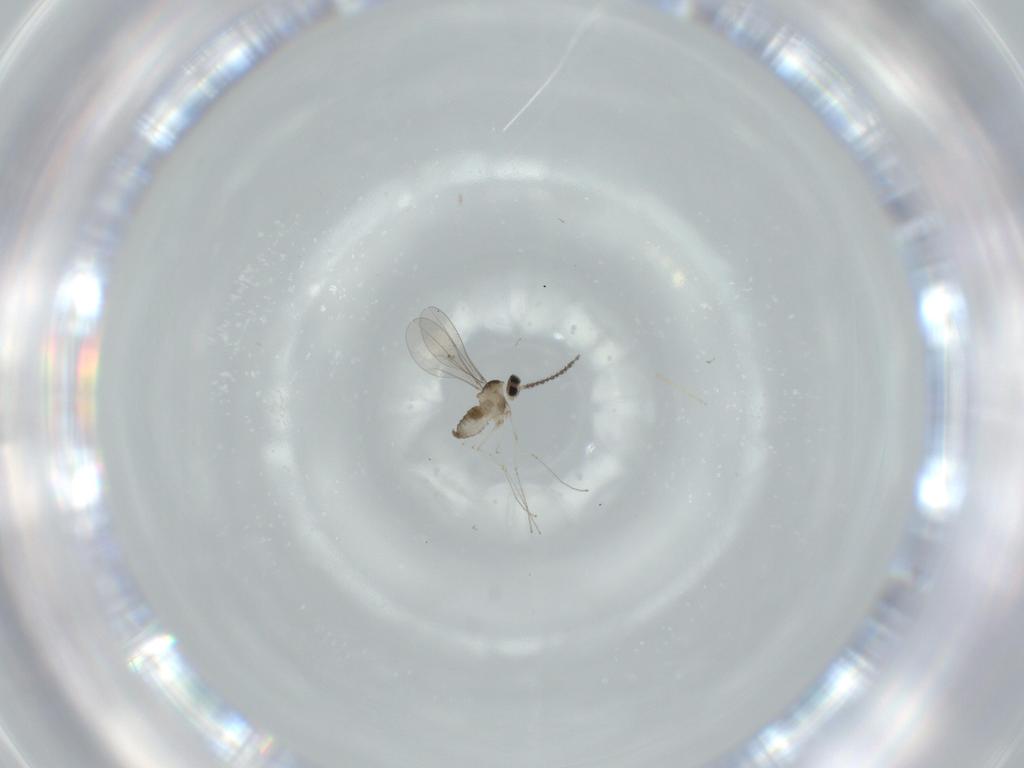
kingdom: Animalia
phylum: Arthropoda
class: Insecta
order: Diptera
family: Cecidomyiidae
